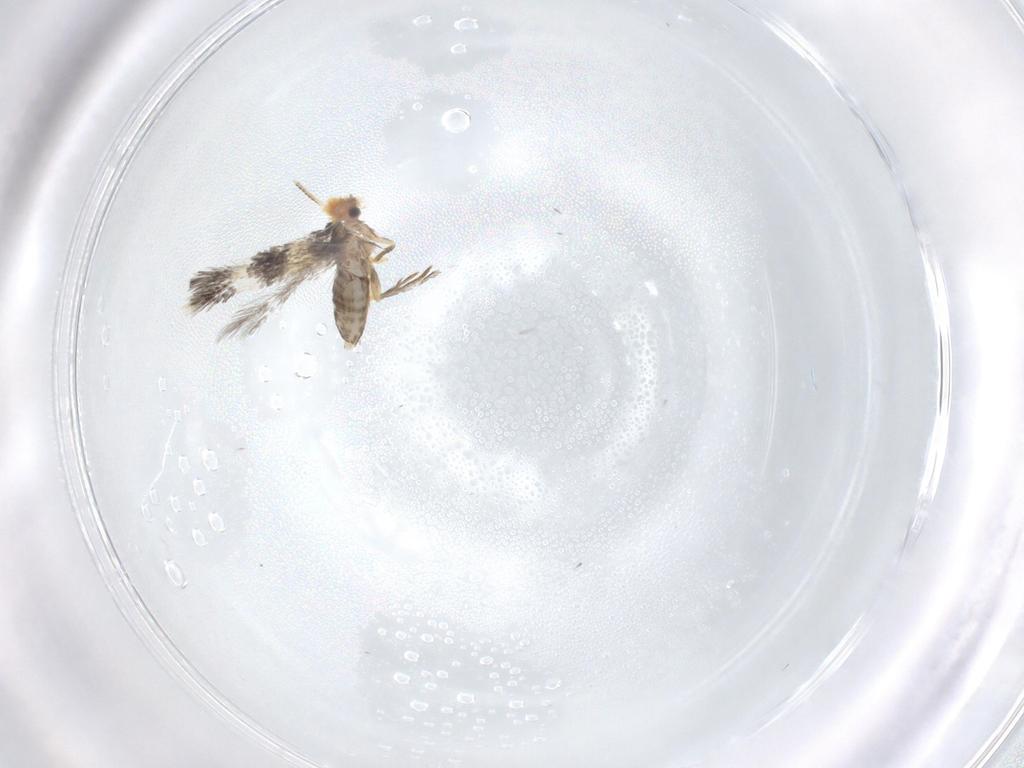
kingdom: Animalia
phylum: Arthropoda
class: Insecta
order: Lepidoptera
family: Nepticulidae
